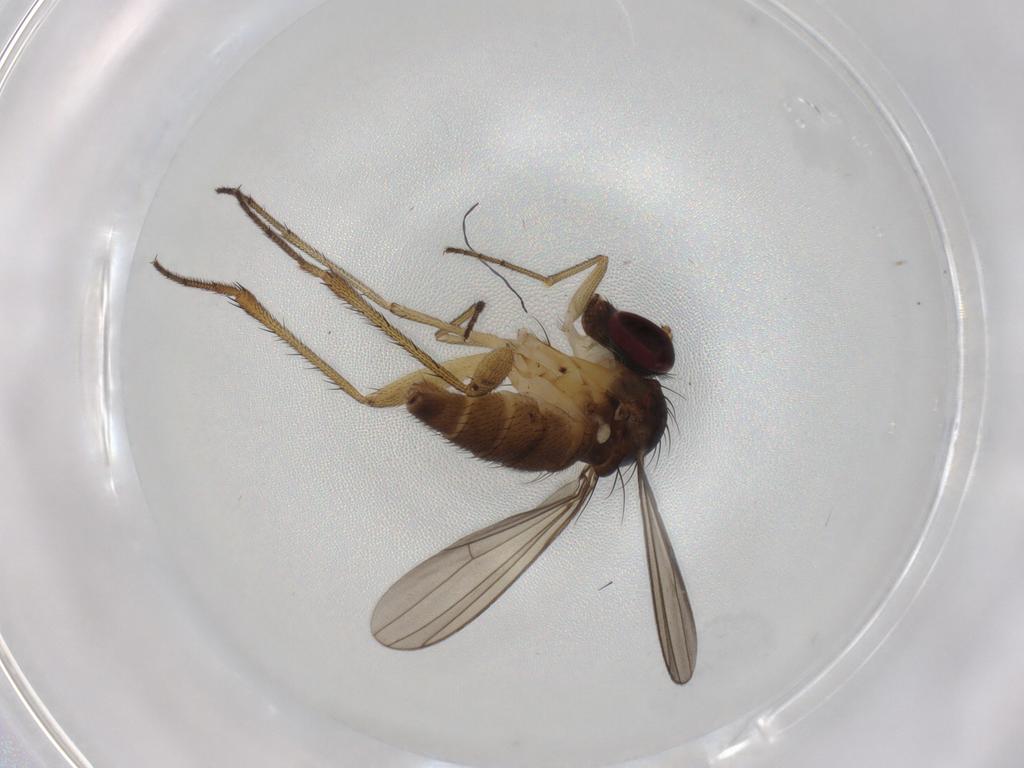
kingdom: Animalia
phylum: Arthropoda
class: Insecta
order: Diptera
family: Dolichopodidae
